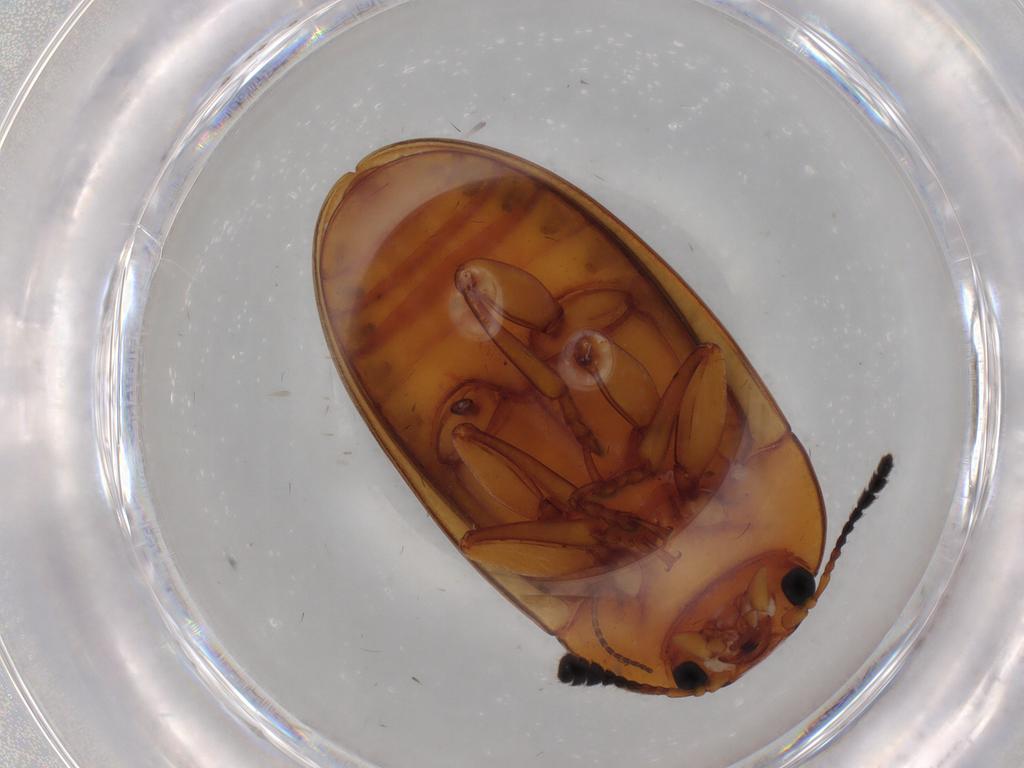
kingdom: Animalia
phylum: Arthropoda
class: Insecta
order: Coleoptera
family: Erotylidae
